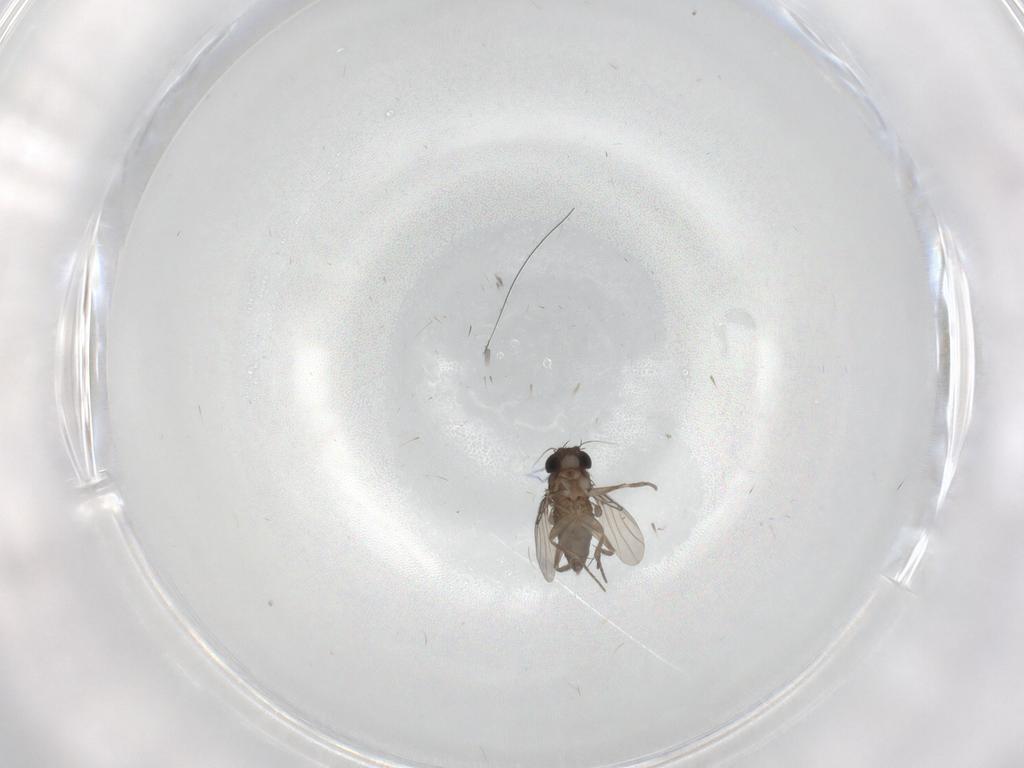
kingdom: Animalia
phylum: Arthropoda
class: Insecta
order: Diptera
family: Phoridae
